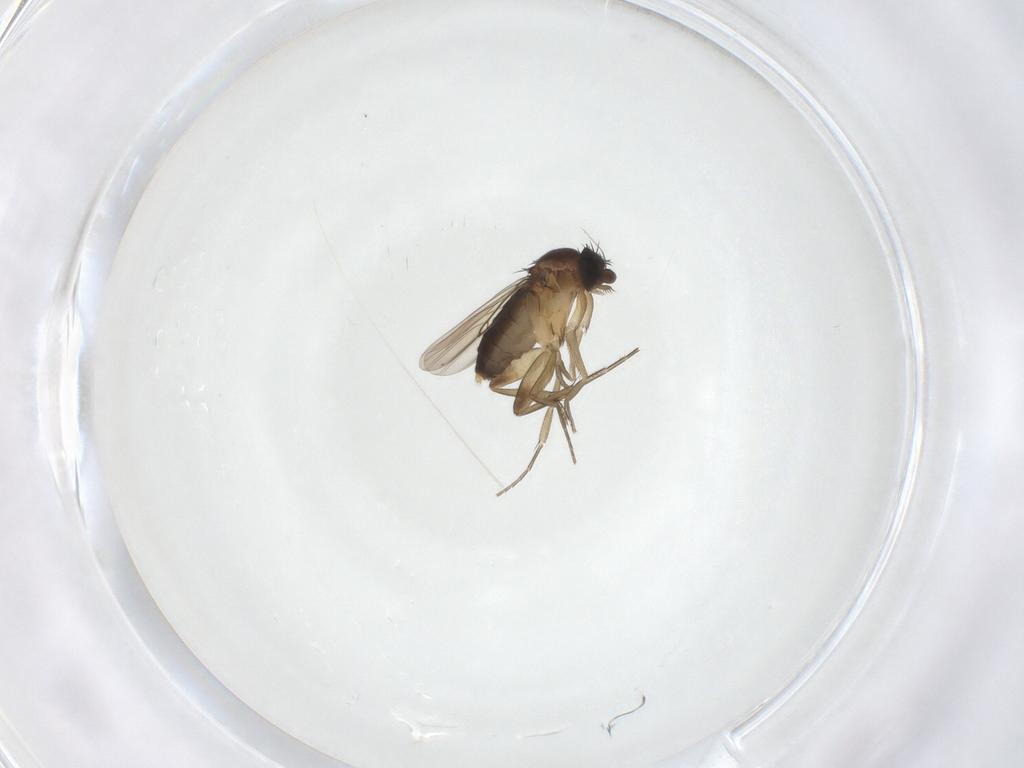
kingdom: Animalia
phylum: Arthropoda
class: Insecta
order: Diptera
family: Phoridae
